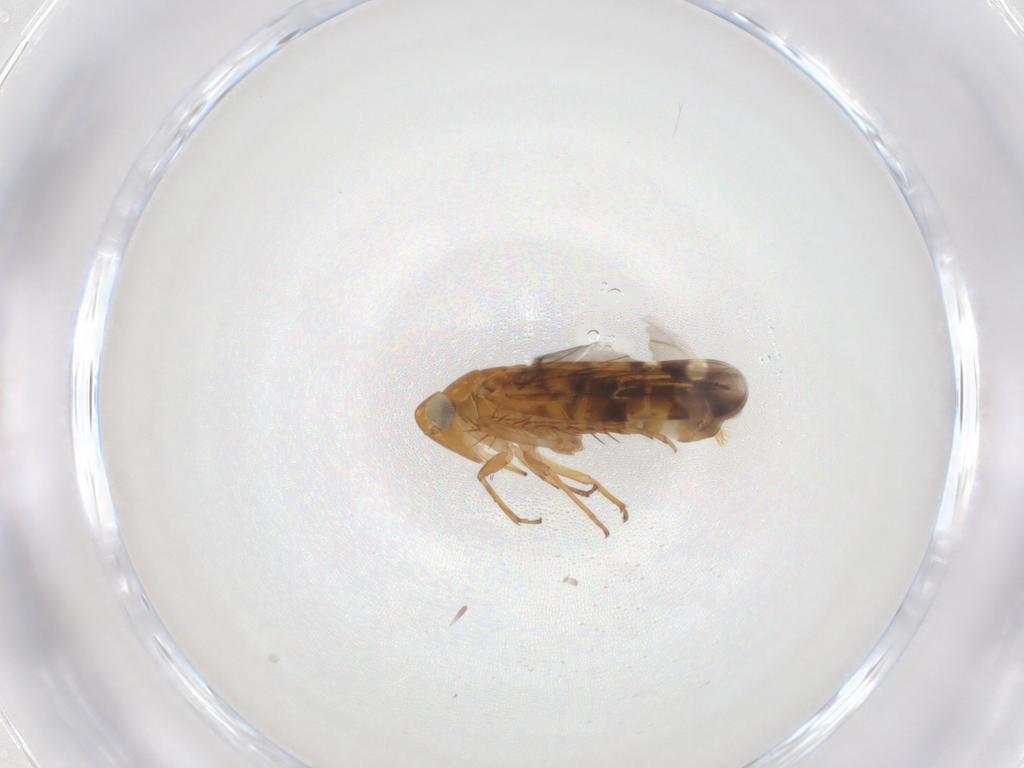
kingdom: Animalia
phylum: Arthropoda
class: Insecta
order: Hemiptera
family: Cicadellidae
